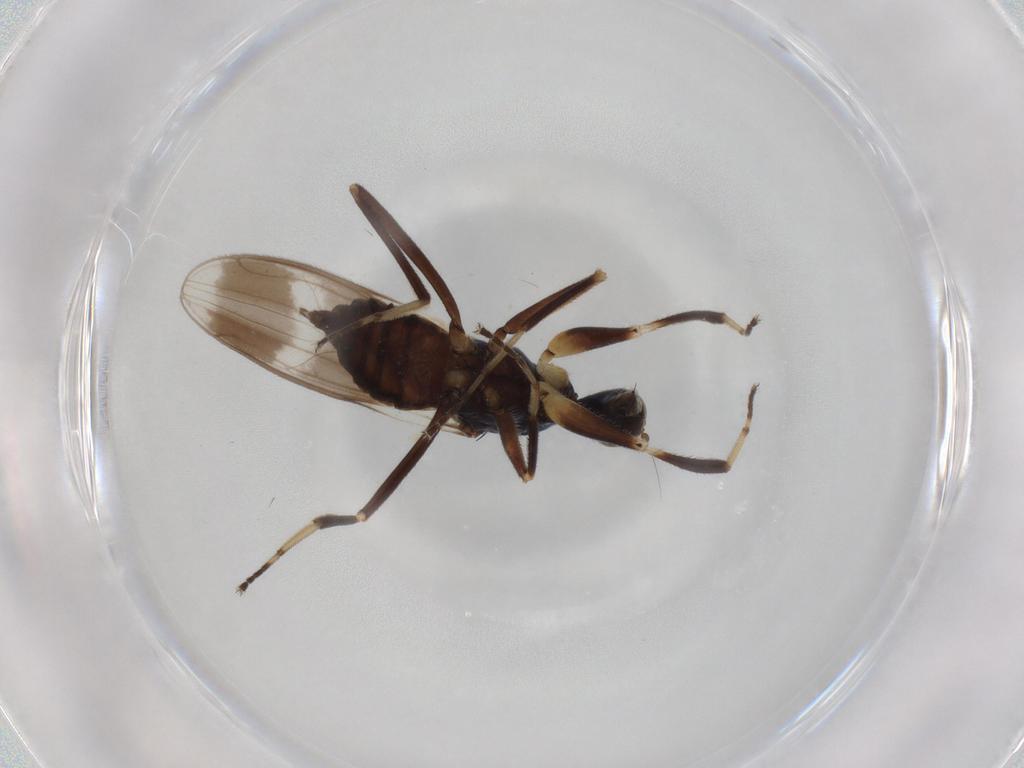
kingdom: Animalia
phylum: Arthropoda
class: Insecta
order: Diptera
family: Hybotidae
